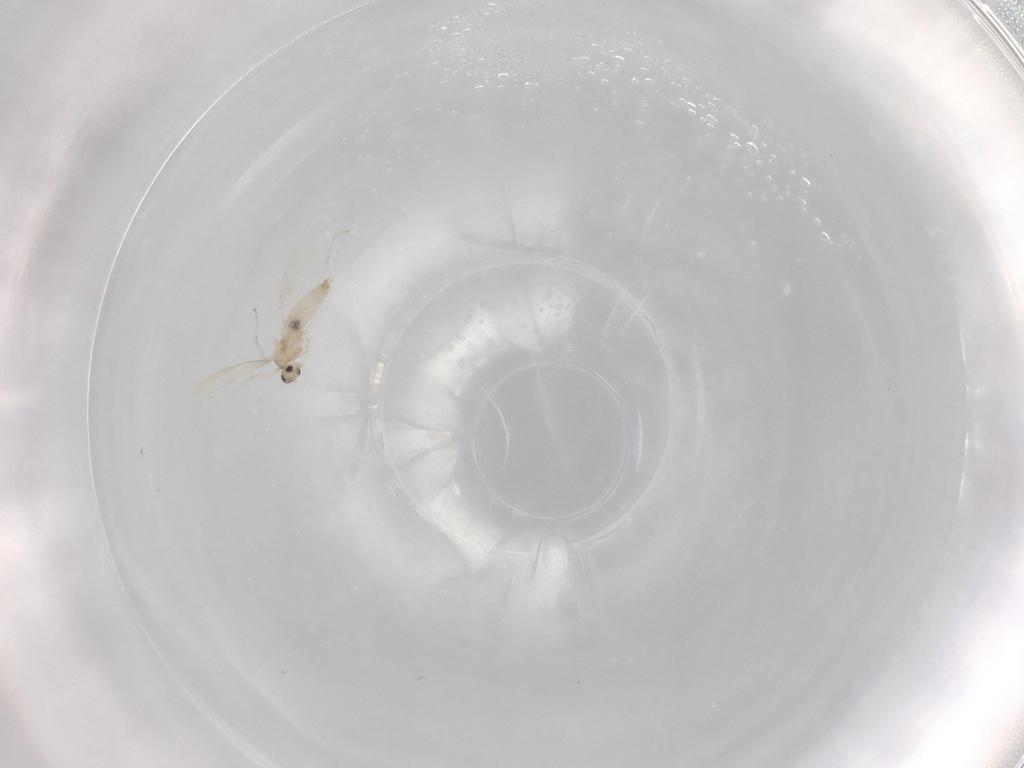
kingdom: Animalia
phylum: Arthropoda
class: Insecta
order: Diptera
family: Cecidomyiidae
